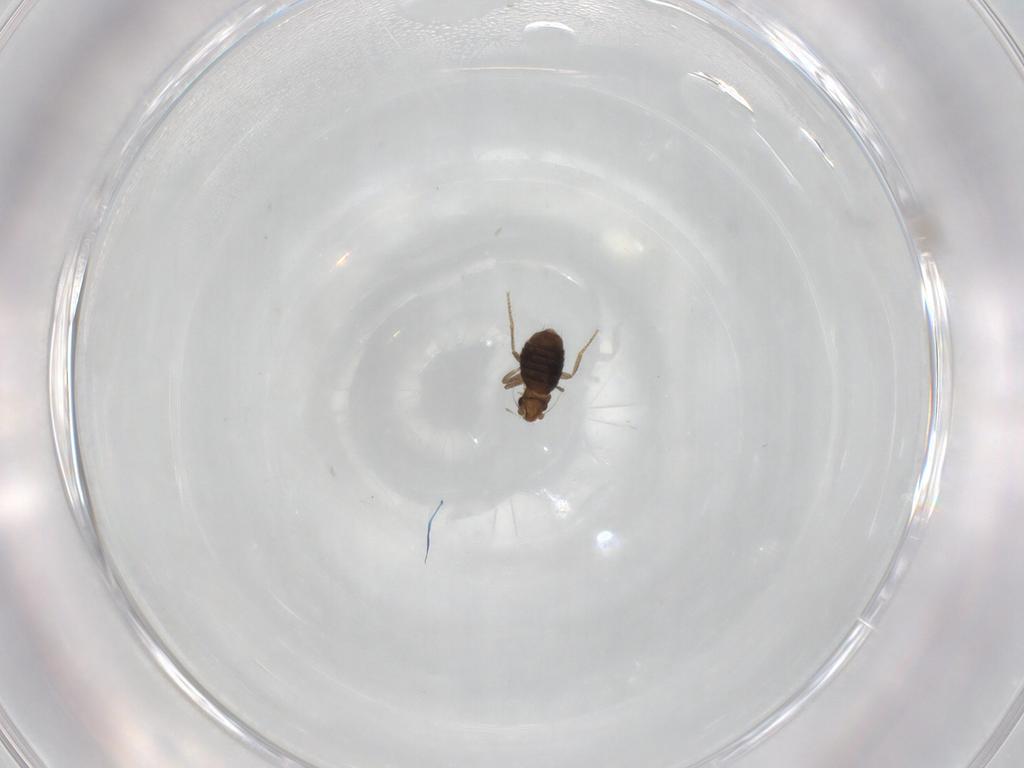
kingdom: Animalia
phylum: Arthropoda
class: Insecta
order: Diptera
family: Phoridae
